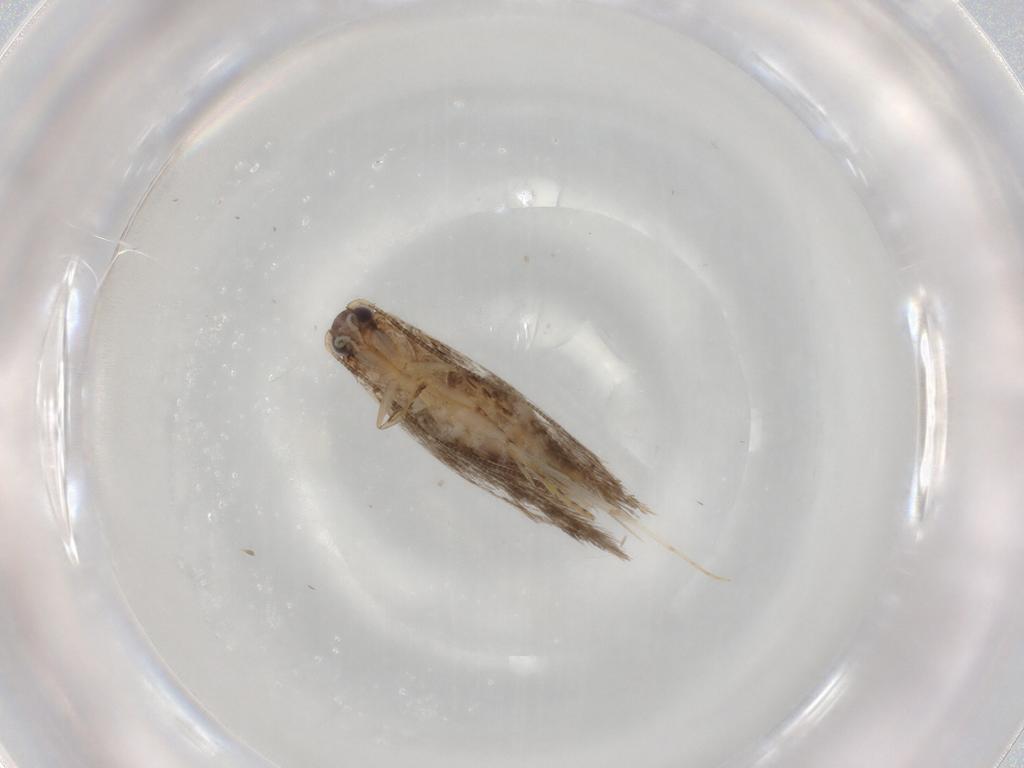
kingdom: Animalia
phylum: Arthropoda
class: Insecta
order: Lepidoptera
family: Tineidae
